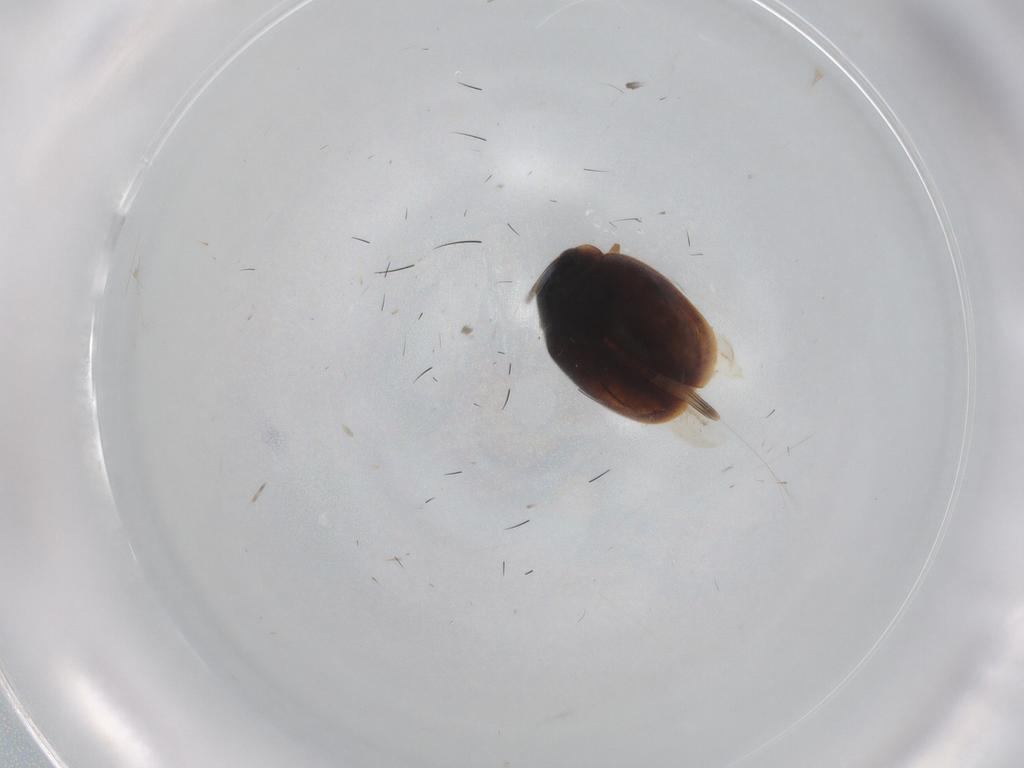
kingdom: Animalia
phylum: Arthropoda
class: Insecta
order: Coleoptera
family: Coccinellidae
